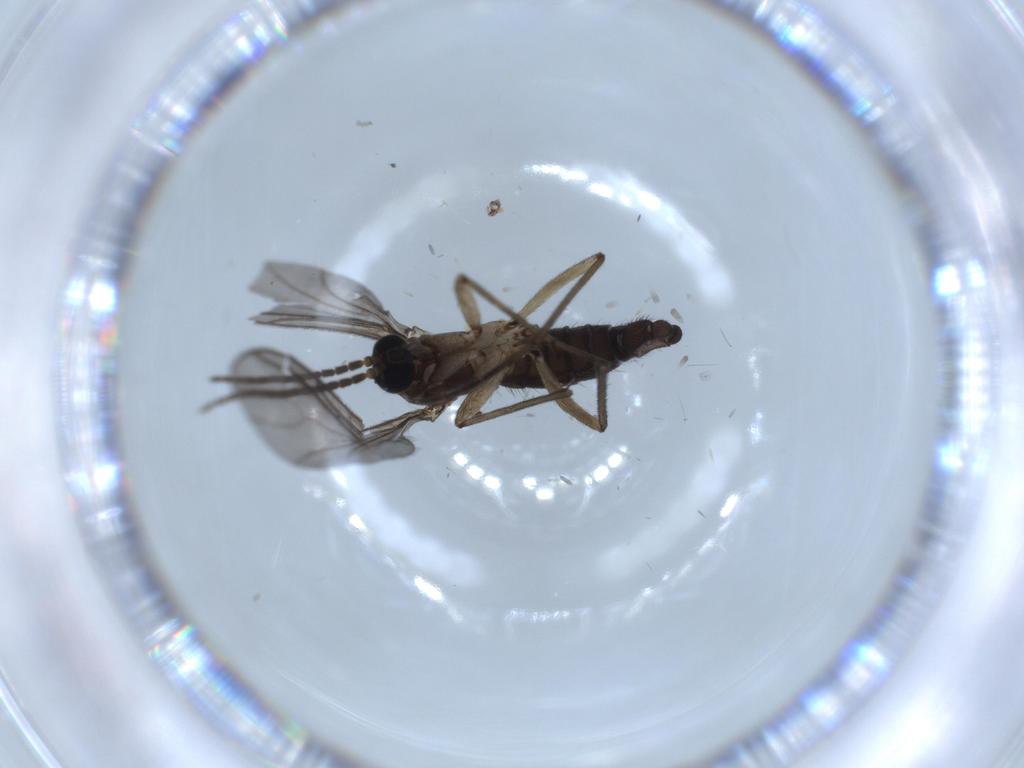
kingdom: Animalia
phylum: Arthropoda
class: Insecta
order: Diptera
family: Sciaridae
